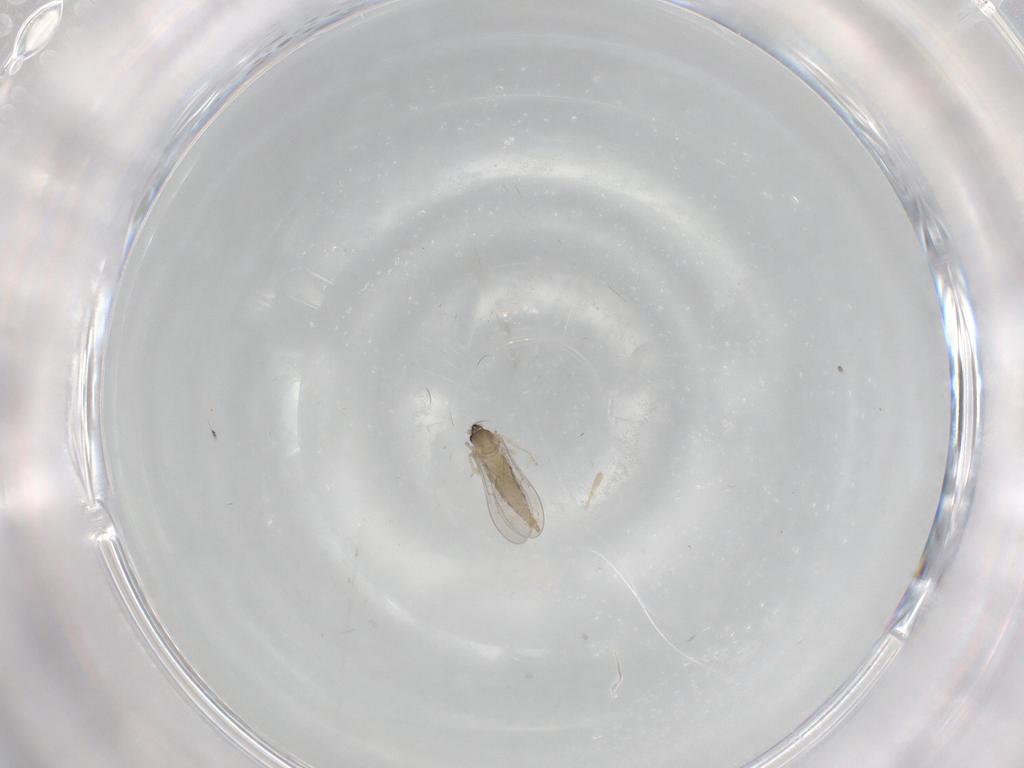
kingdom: Animalia
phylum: Arthropoda
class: Insecta
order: Diptera
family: Cecidomyiidae
